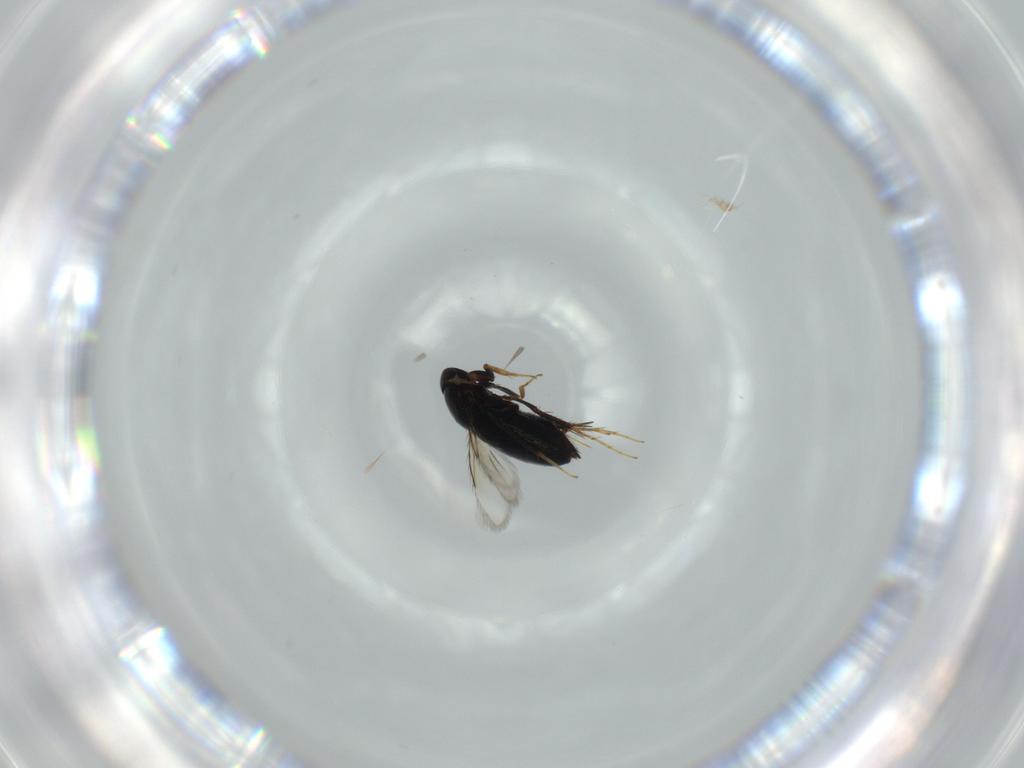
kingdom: Animalia
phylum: Arthropoda
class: Insecta
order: Hymenoptera
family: Signiphoridae
